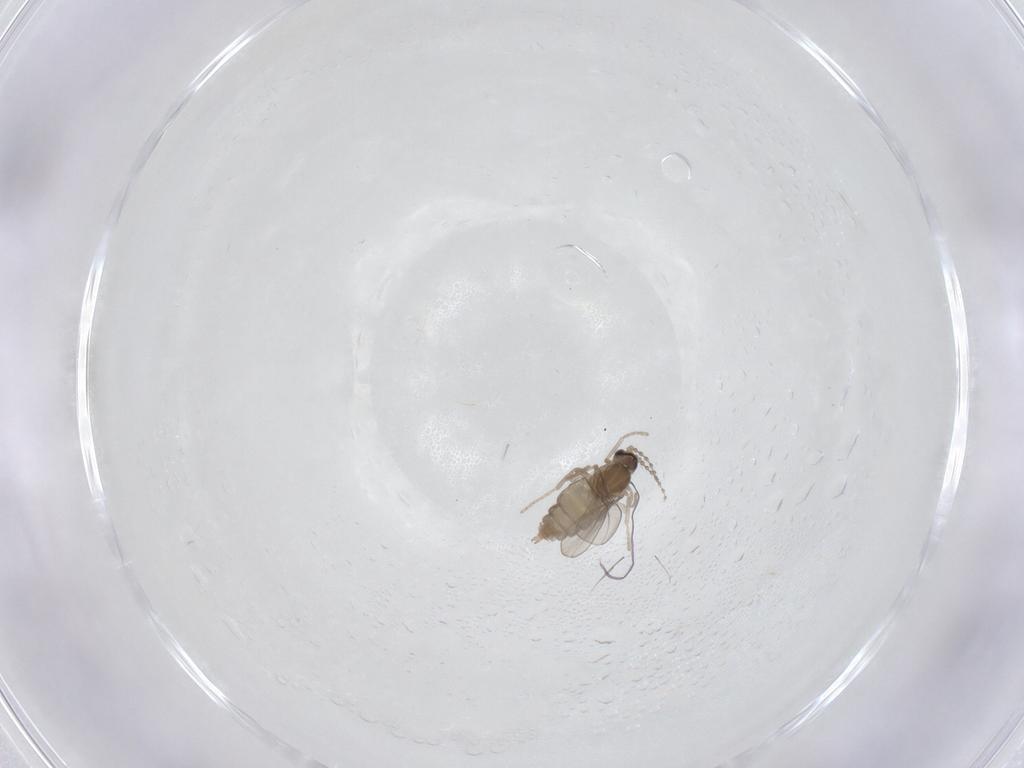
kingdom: Animalia
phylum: Arthropoda
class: Insecta
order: Diptera
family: Cecidomyiidae
